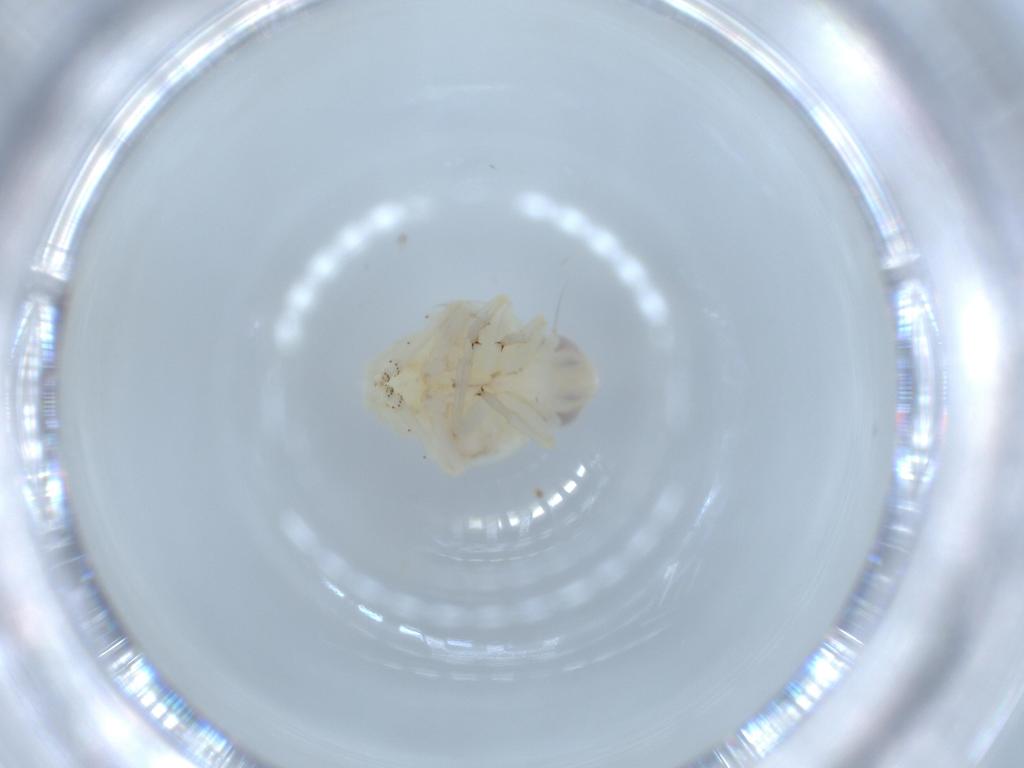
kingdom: Animalia
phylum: Arthropoda
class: Insecta
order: Hemiptera
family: Nogodinidae
